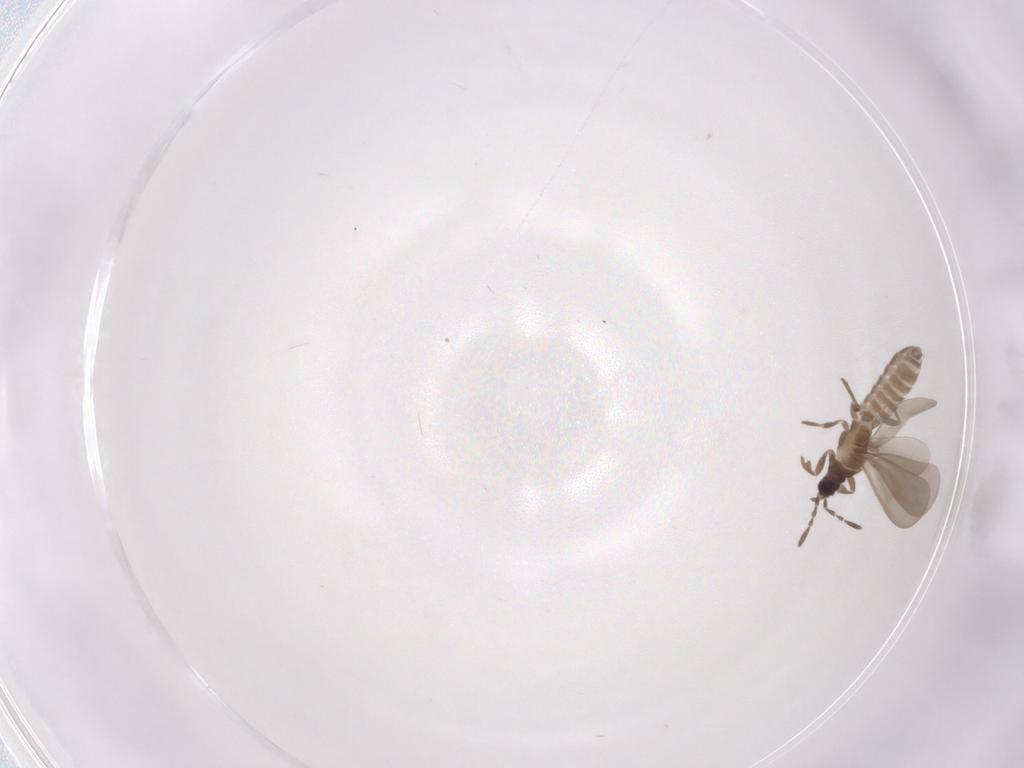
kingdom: Animalia
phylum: Arthropoda
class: Insecta
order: Hemiptera
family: Enicocephalidae
